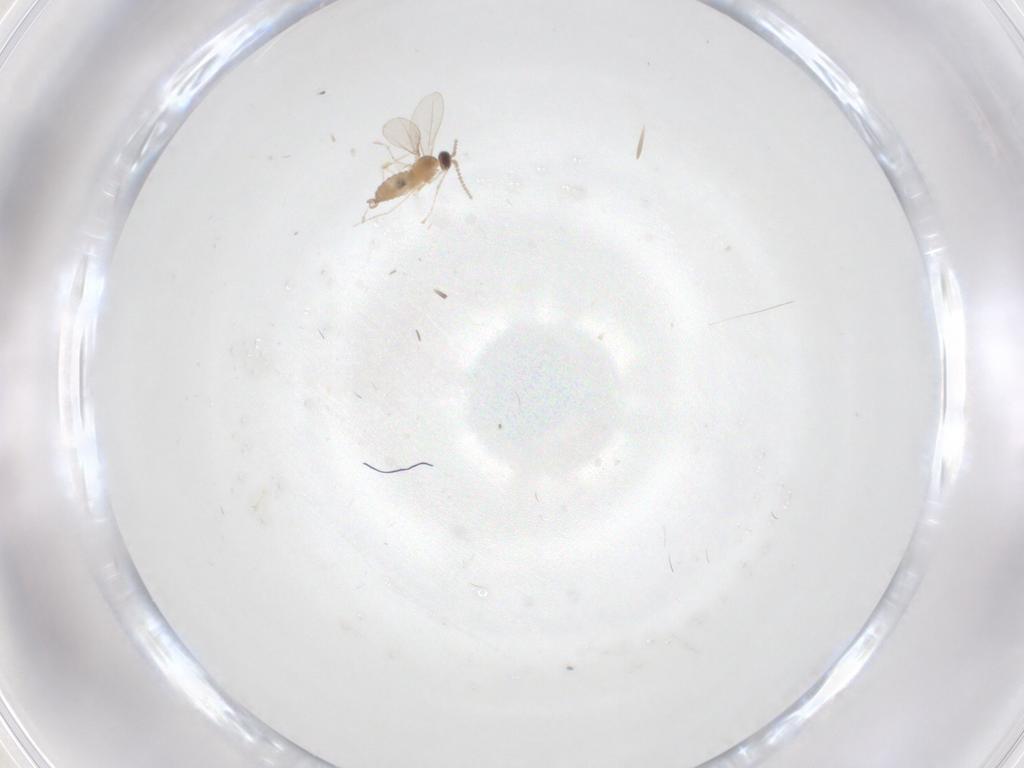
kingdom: Animalia
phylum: Arthropoda
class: Insecta
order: Diptera
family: Cecidomyiidae
